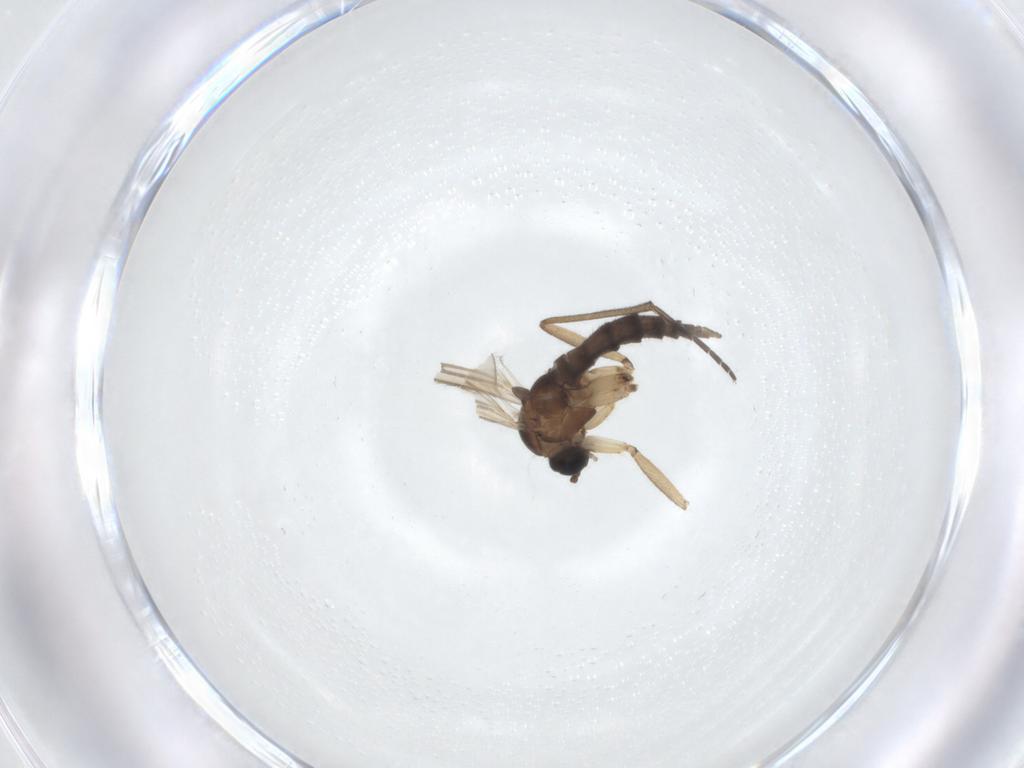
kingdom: Animalia
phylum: Arthropoda
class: Insecta
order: Diptera
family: Sciaridae
